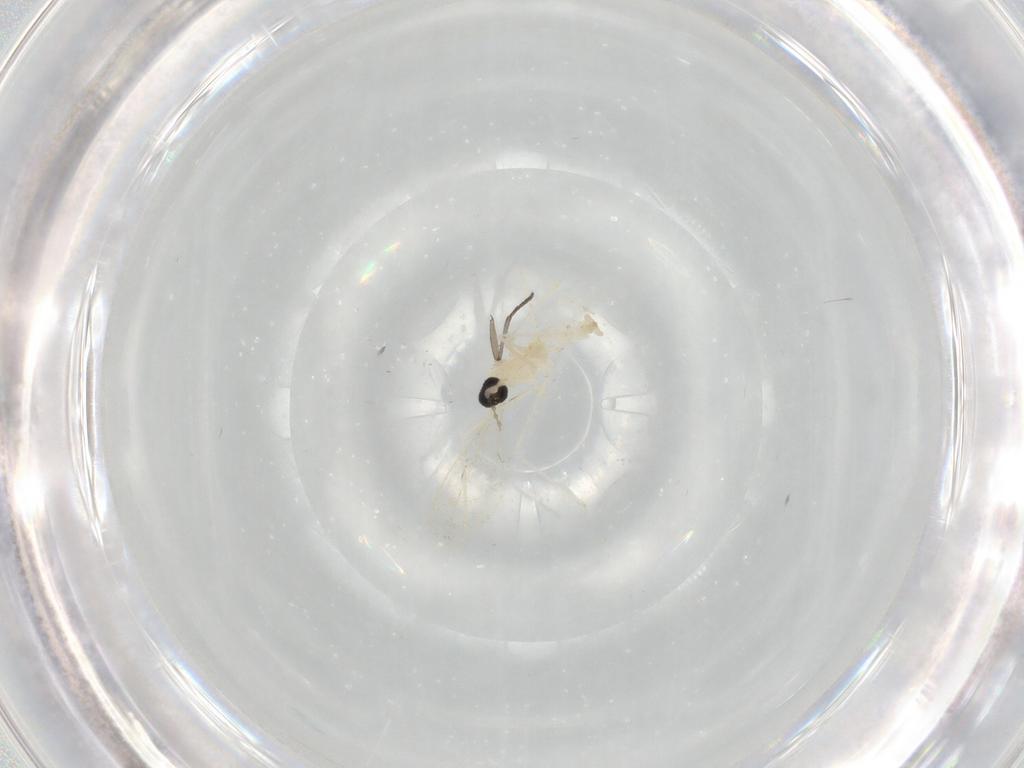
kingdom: Animalia
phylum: Arthropoda
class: Insecta
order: Diptera
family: Cecidomyiidae
